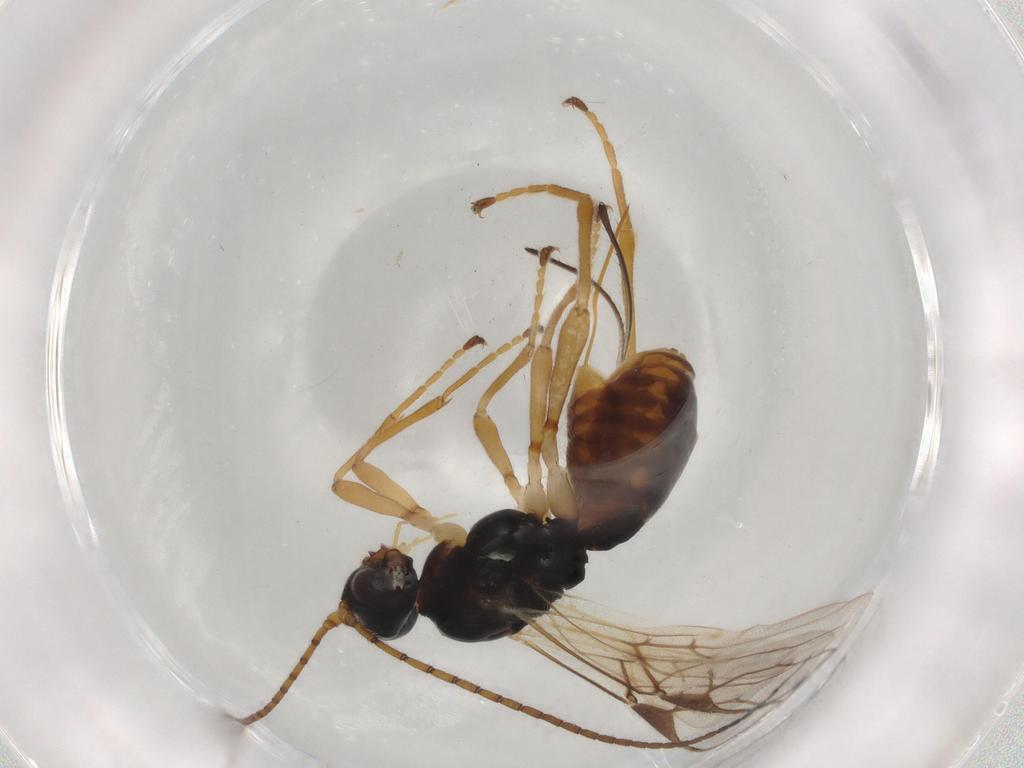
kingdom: Animalia
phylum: Arthropoda
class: Insecta
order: Hymenoptera
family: Braconidae
